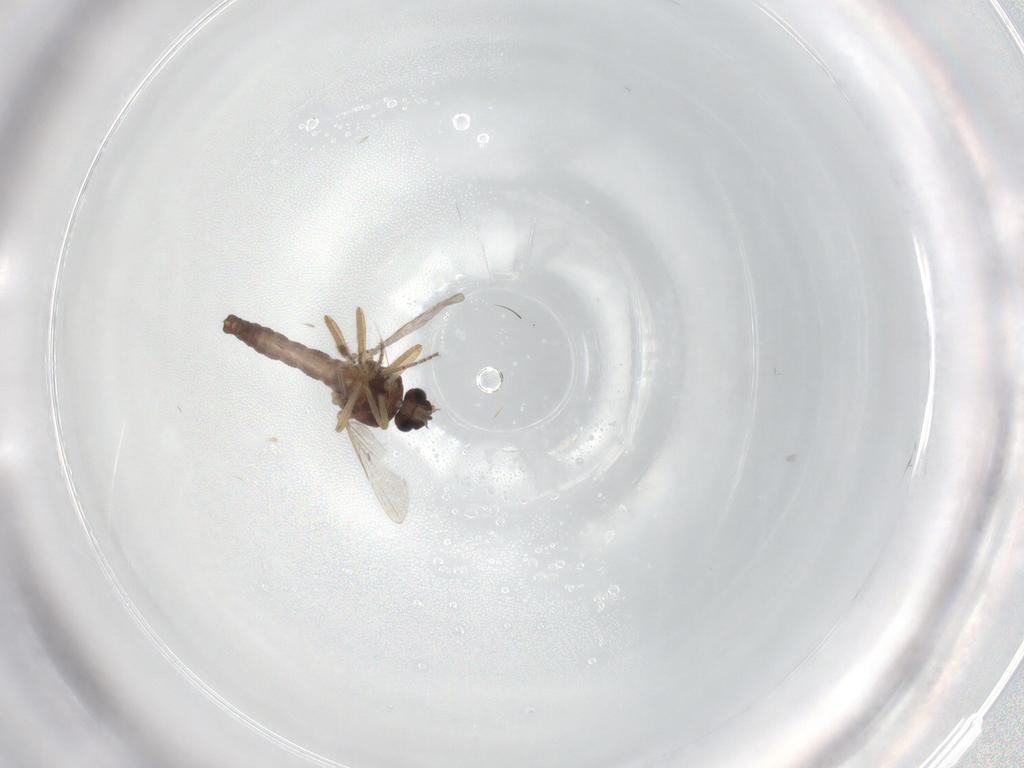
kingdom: Animalia
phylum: Arthropoda
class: Insecta
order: Diptera
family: Ceratopogonidae
